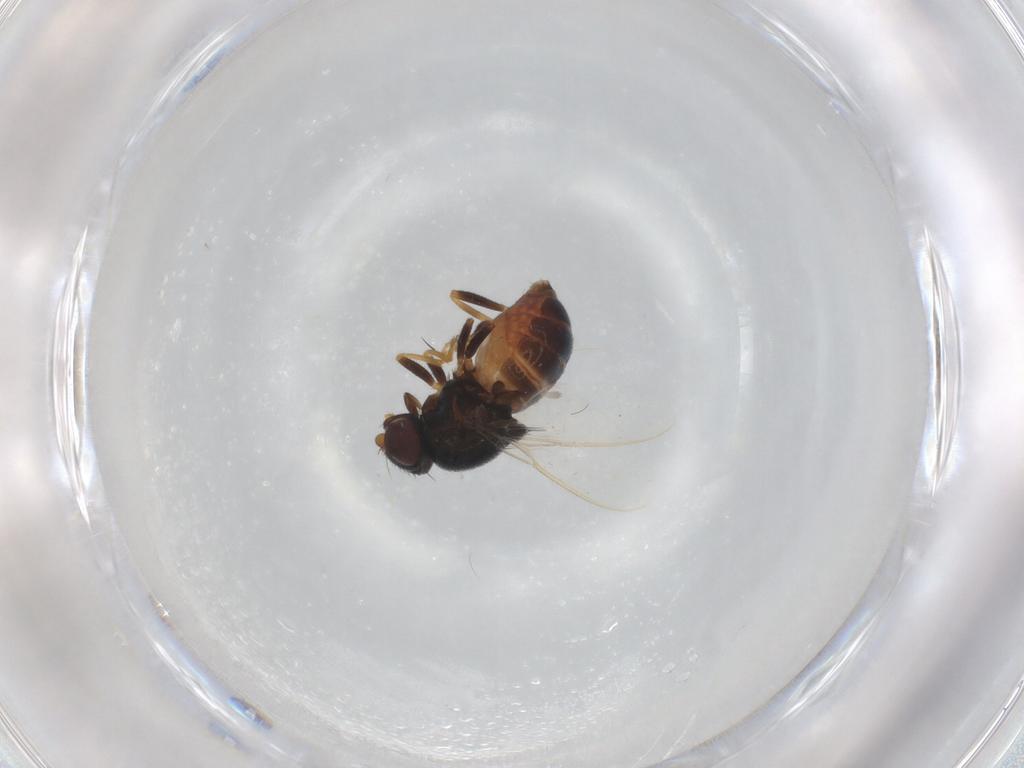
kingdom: Animalia
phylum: Arthropoda
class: Insecta
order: Diptera
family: Chloropidae
